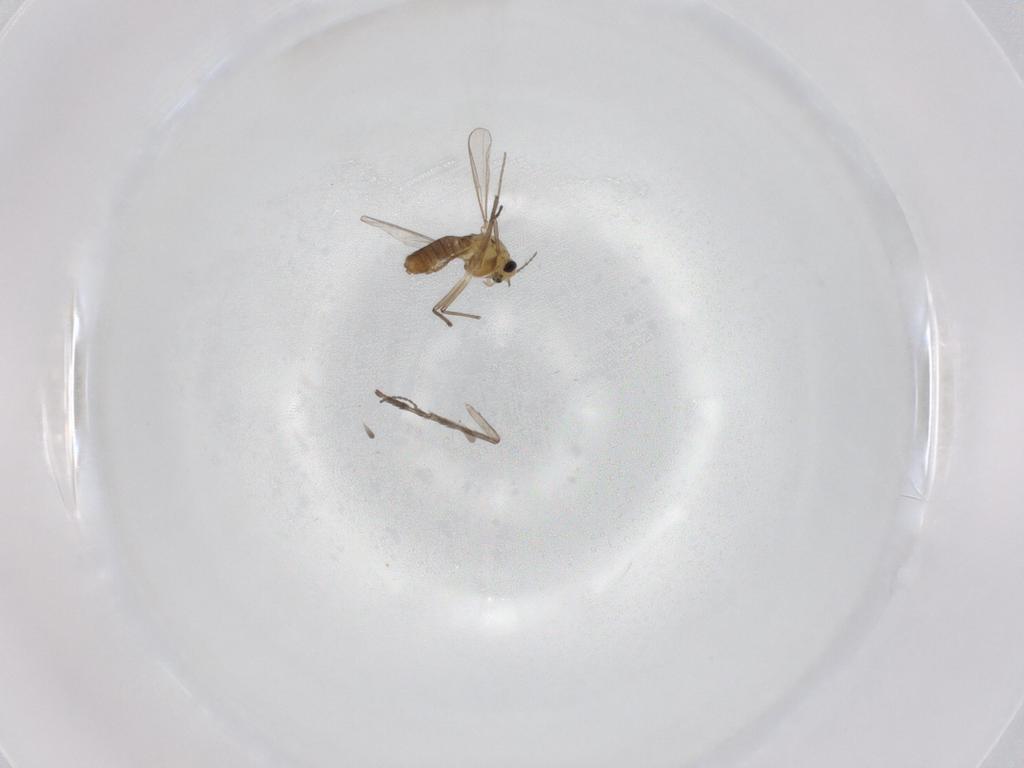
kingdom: Animalia
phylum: Arthropoda
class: Insecta
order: Diptera
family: Chironomidae
